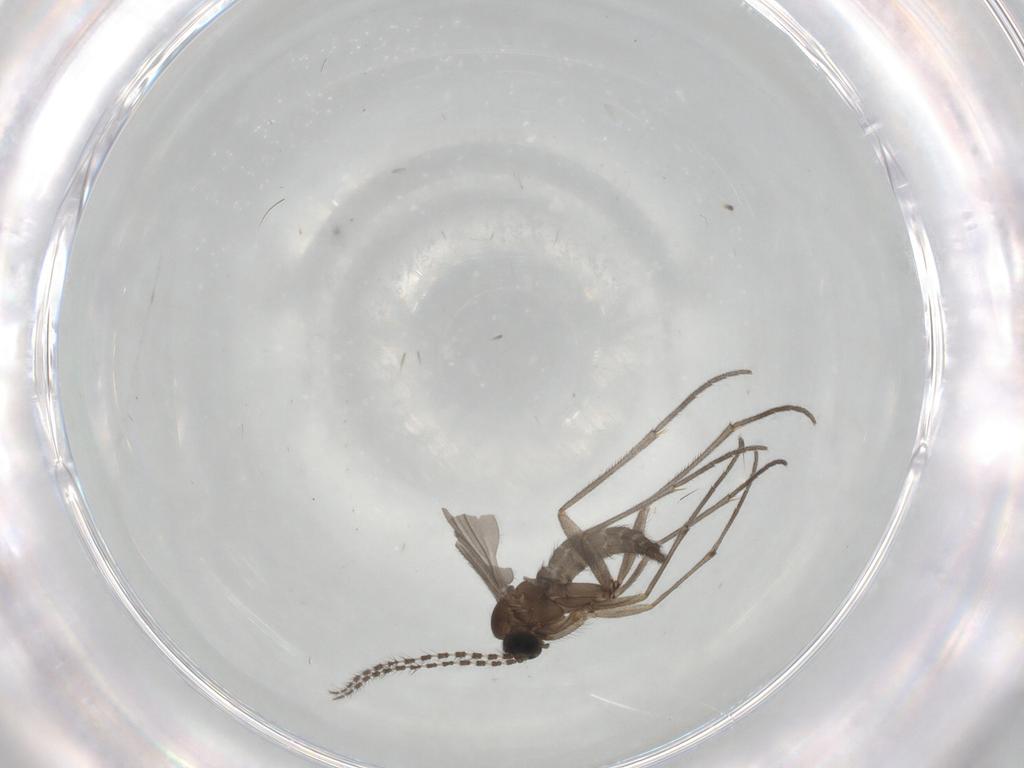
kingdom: Animalia
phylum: Arthropoda
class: Insecta
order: Diptera
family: Sciaridae
